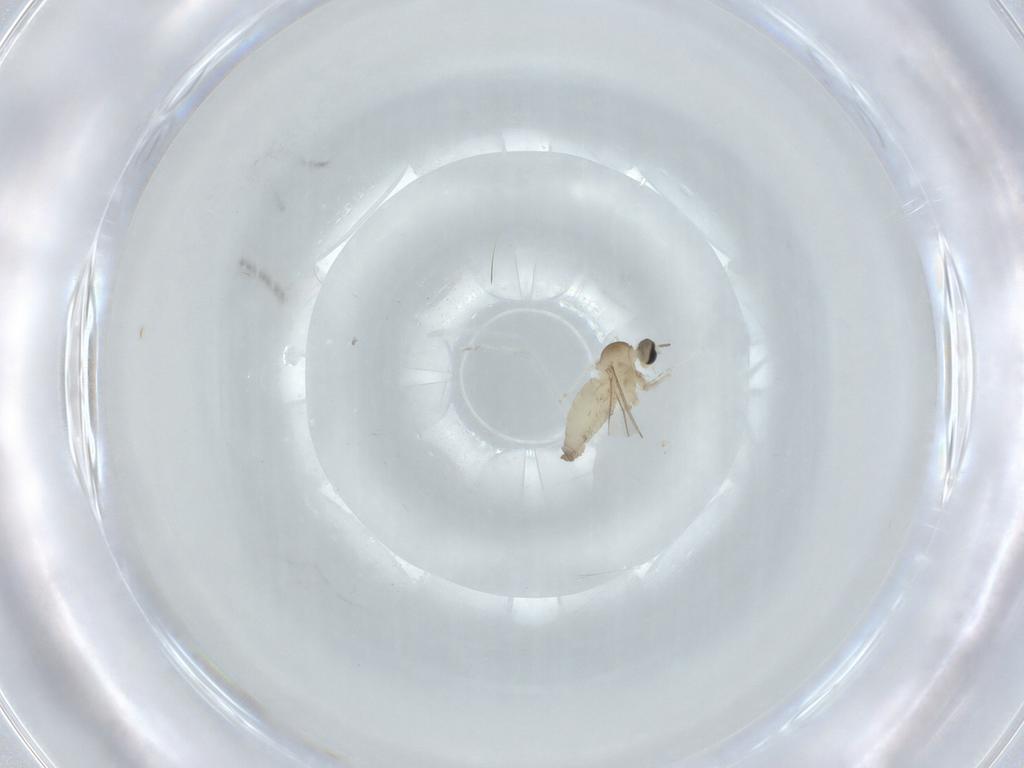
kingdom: Animalia
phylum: Arthropoda
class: Insecta
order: Diptera
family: Cecidomyiidae
